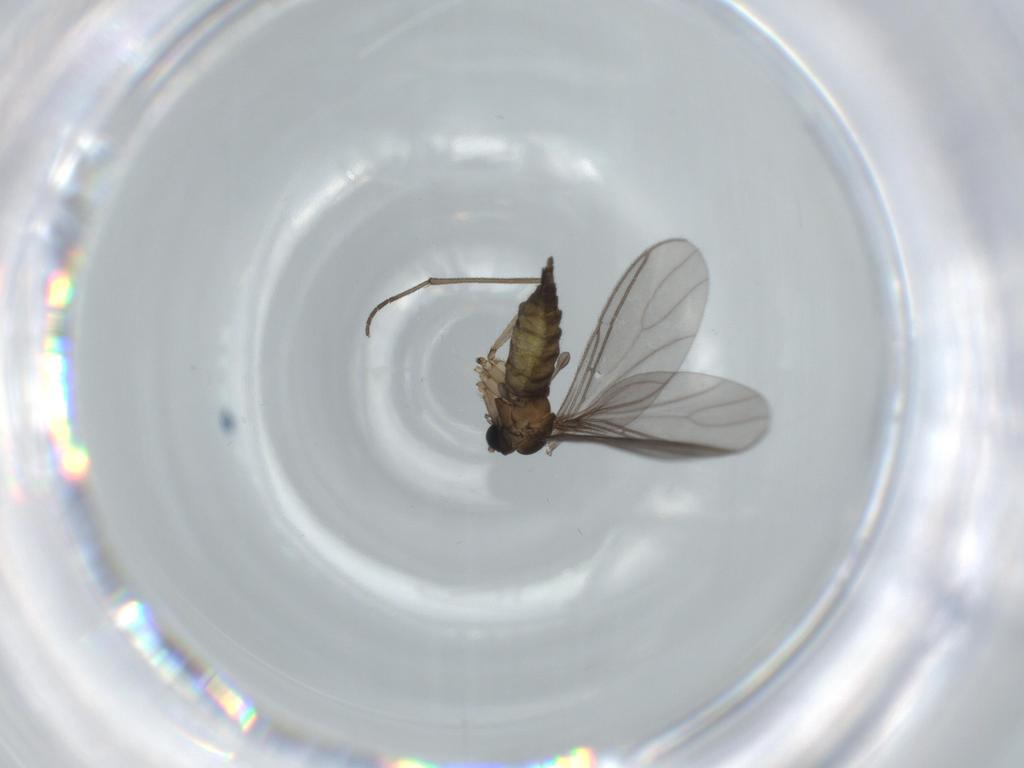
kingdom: Animalia
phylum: Arthropoda
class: Insecta
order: Diptera
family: Sciaridae
